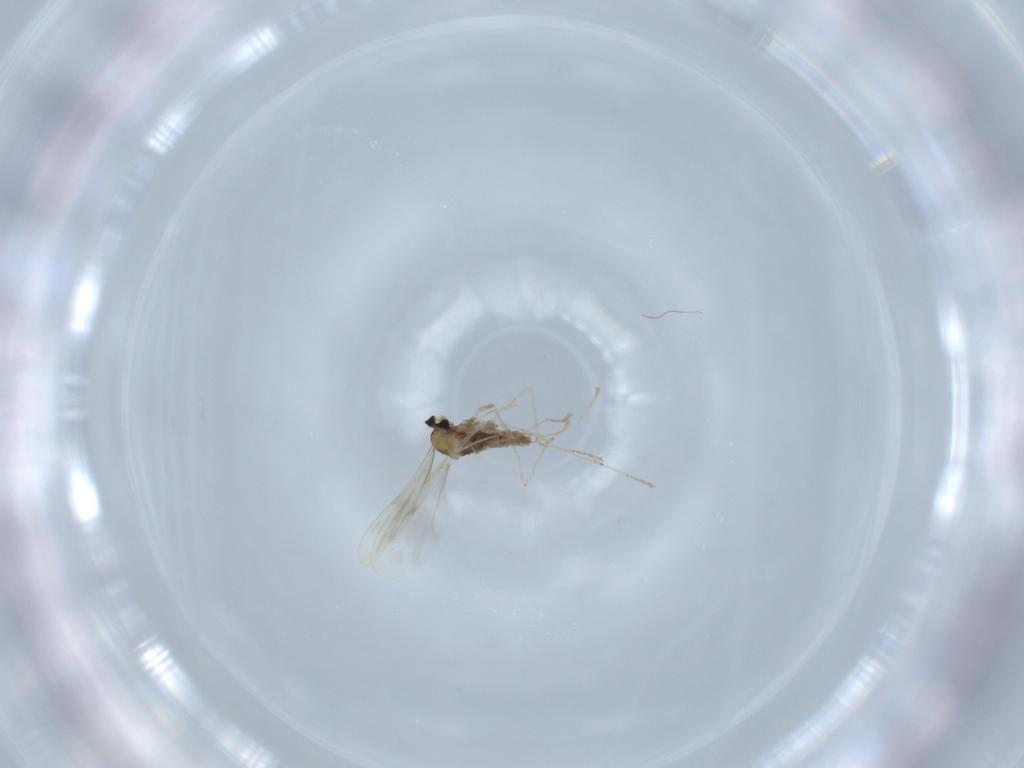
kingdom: Animalia
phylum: Arthropoda
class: Insecta
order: Diptera
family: Cecidomyiidae
